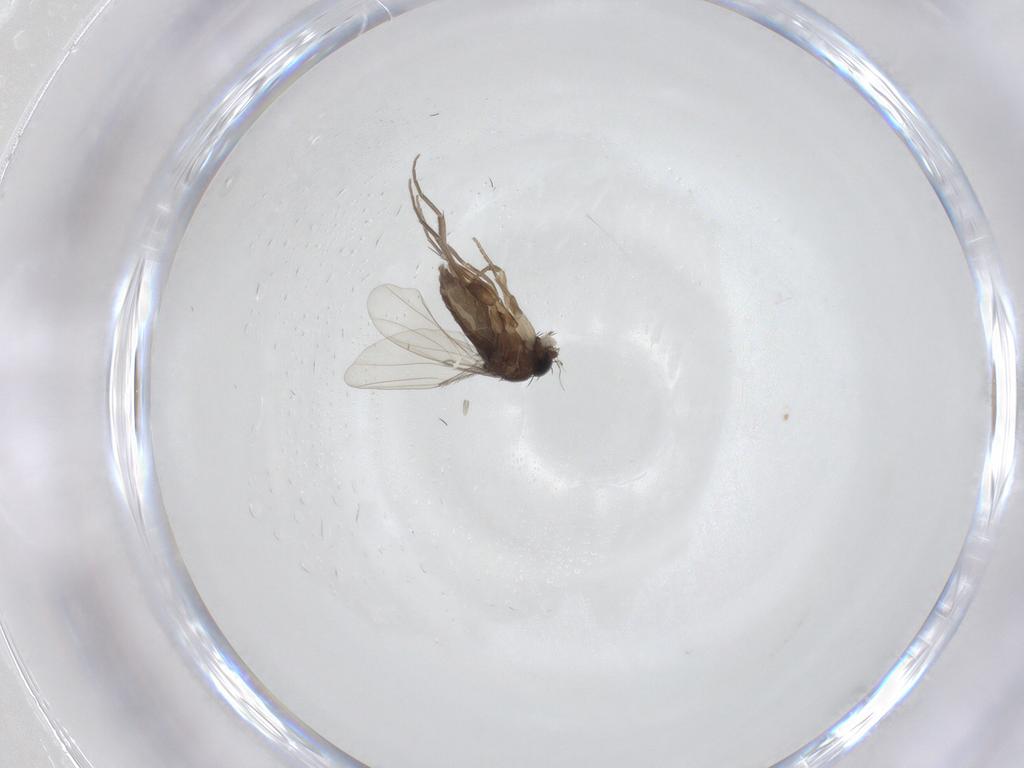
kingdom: Animalia
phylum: Arthropoda
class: Insecta
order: Diptera
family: Phoridae
